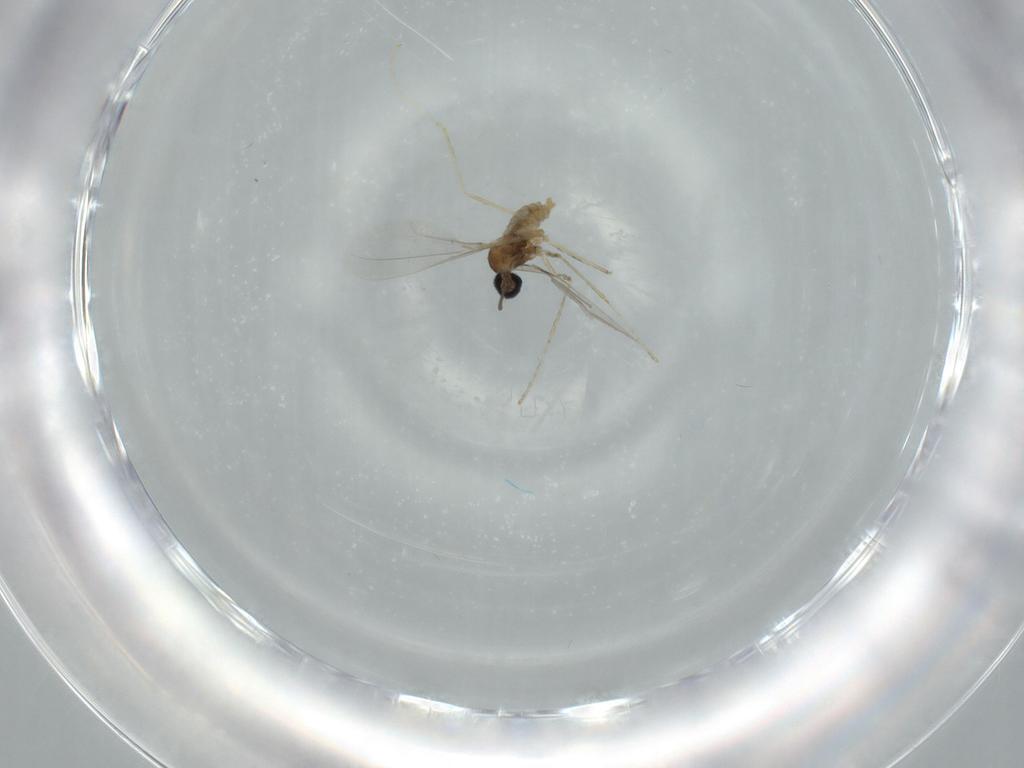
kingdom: Animalia
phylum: Arthropoda
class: Insecta
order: Diptera
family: Cecidomyiidae
